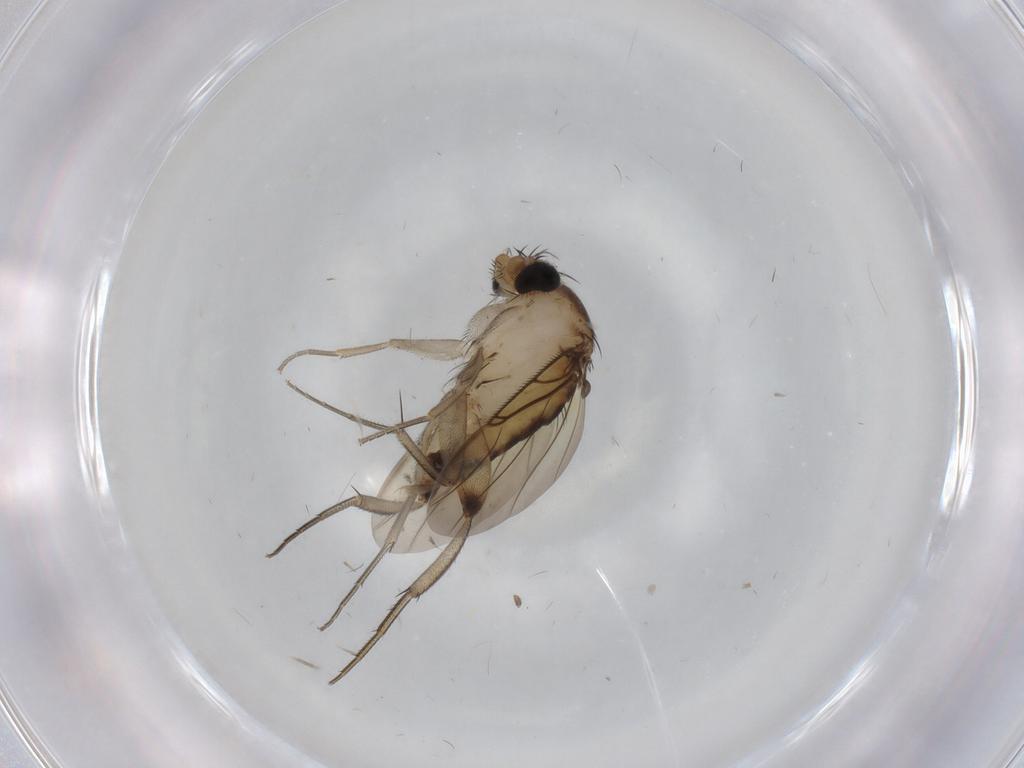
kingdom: Animalia
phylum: Arthropoda
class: Insecta
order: Diptera
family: Phoridae
